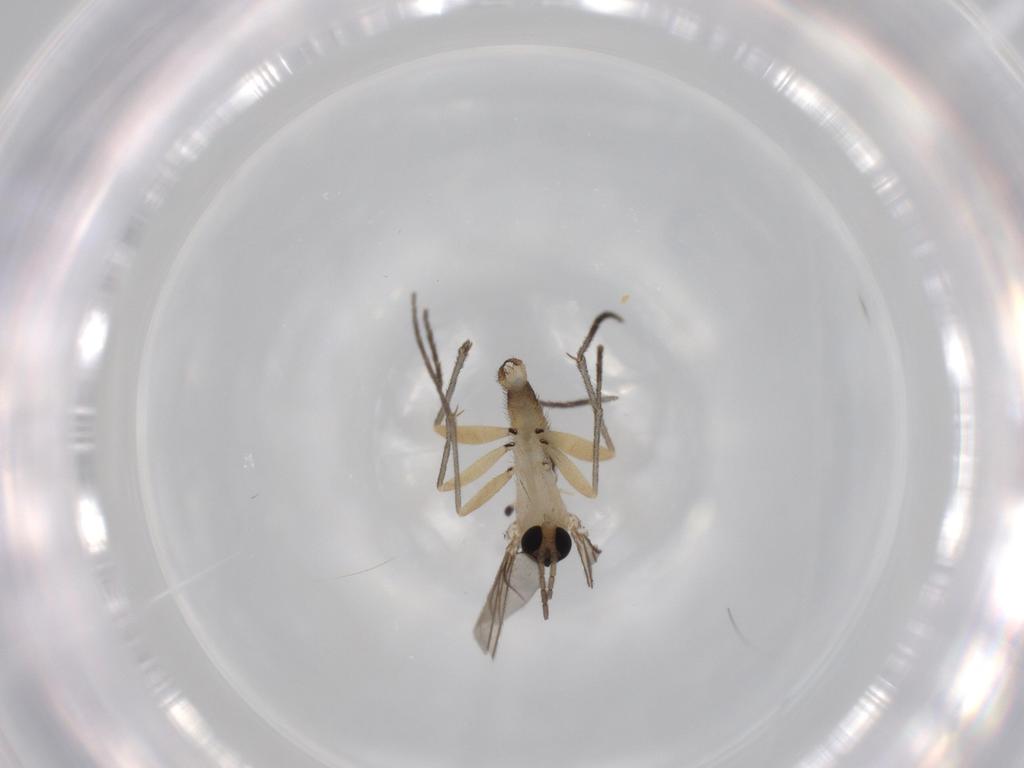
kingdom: Animalia
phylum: Arthropoda
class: Insecta
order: Diptera
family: Sciaridae
